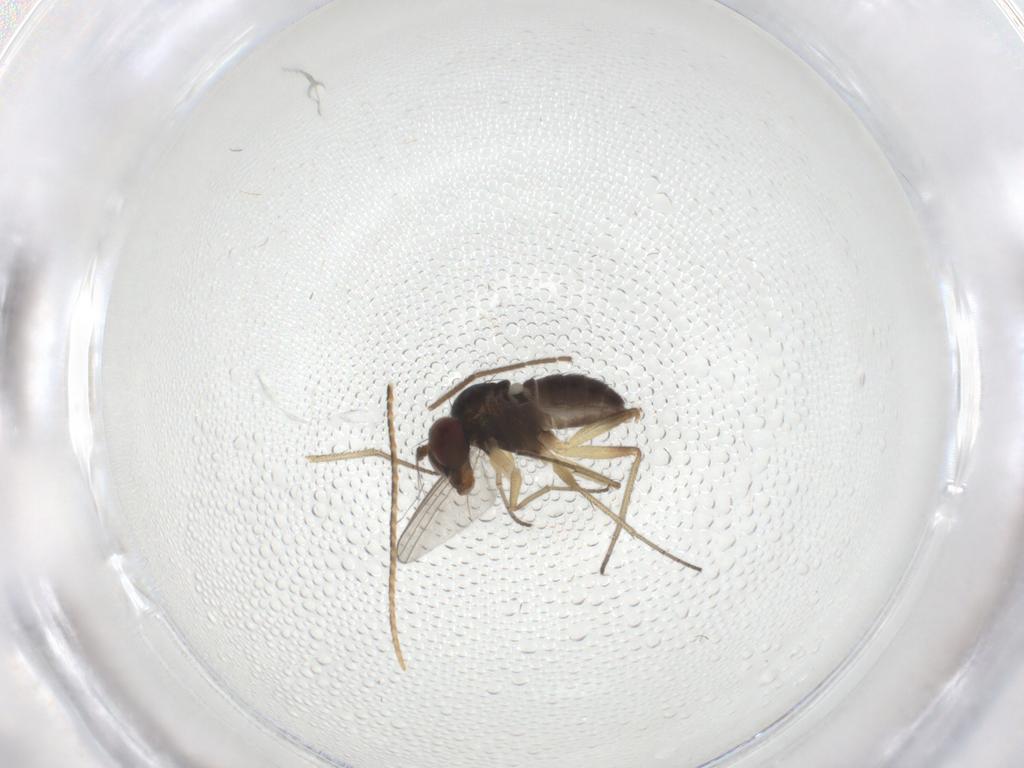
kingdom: Animalia
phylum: Arthropoda
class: Insecta
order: Diptera
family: Dolichopodidae
